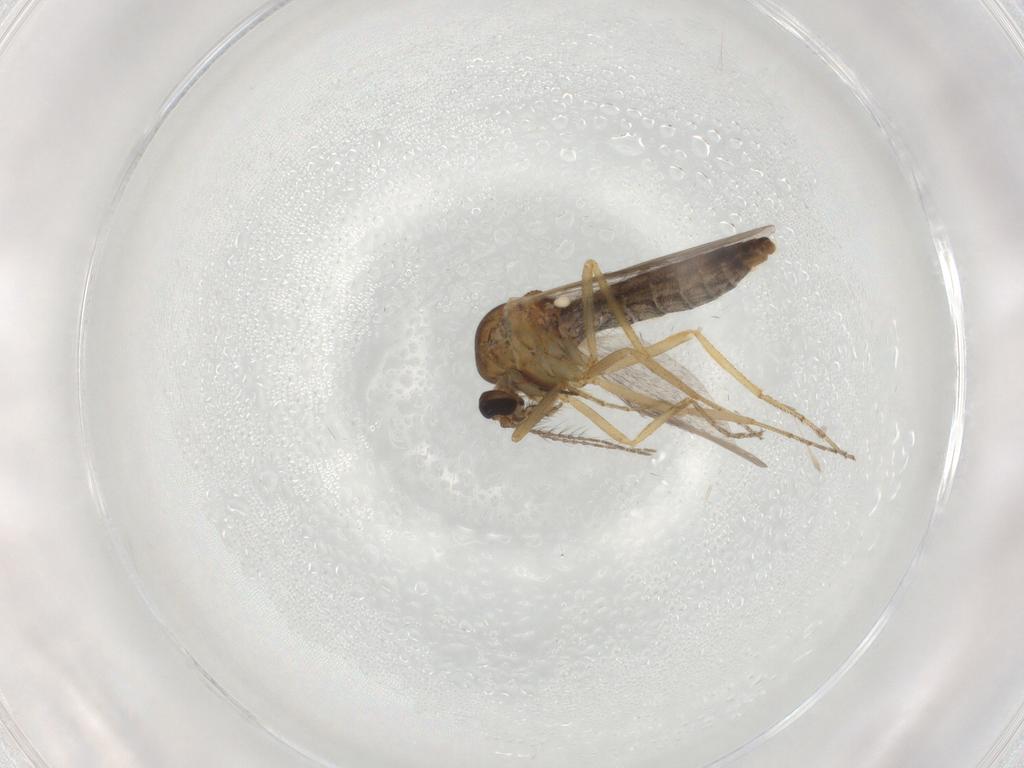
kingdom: Animalia
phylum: Arthropoda
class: Insecta
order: Diptera
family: Ceratopogonidae
